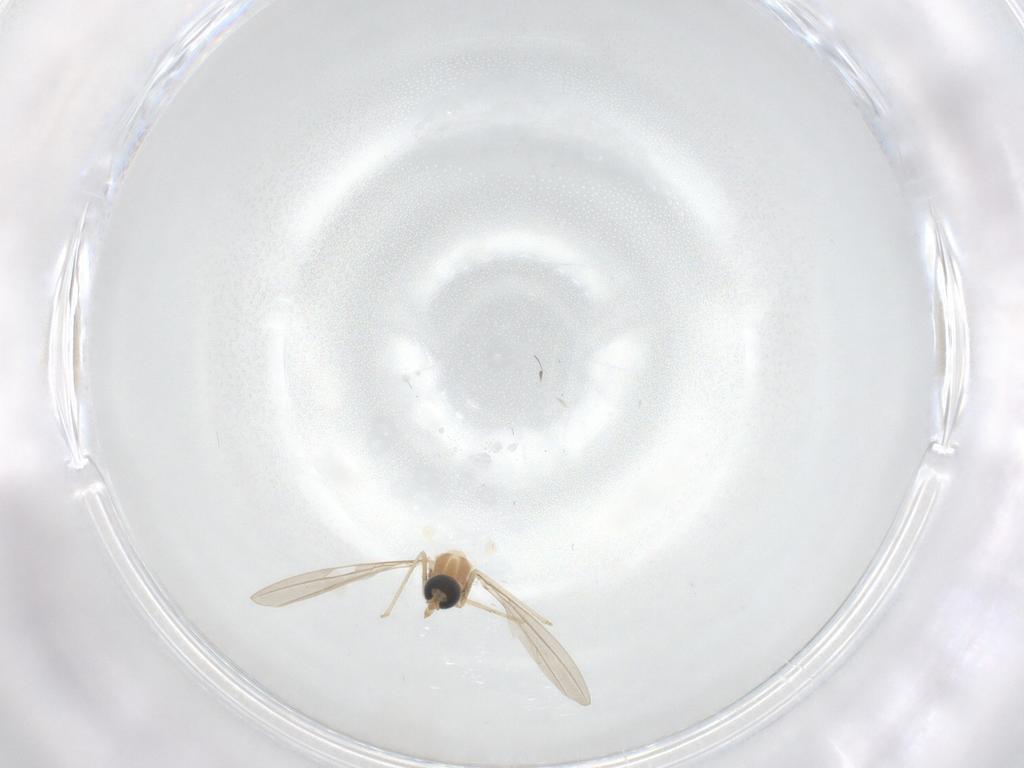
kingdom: Animalia
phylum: Arthropoda
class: Insecta
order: Diptera
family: Cecidomyiidae
